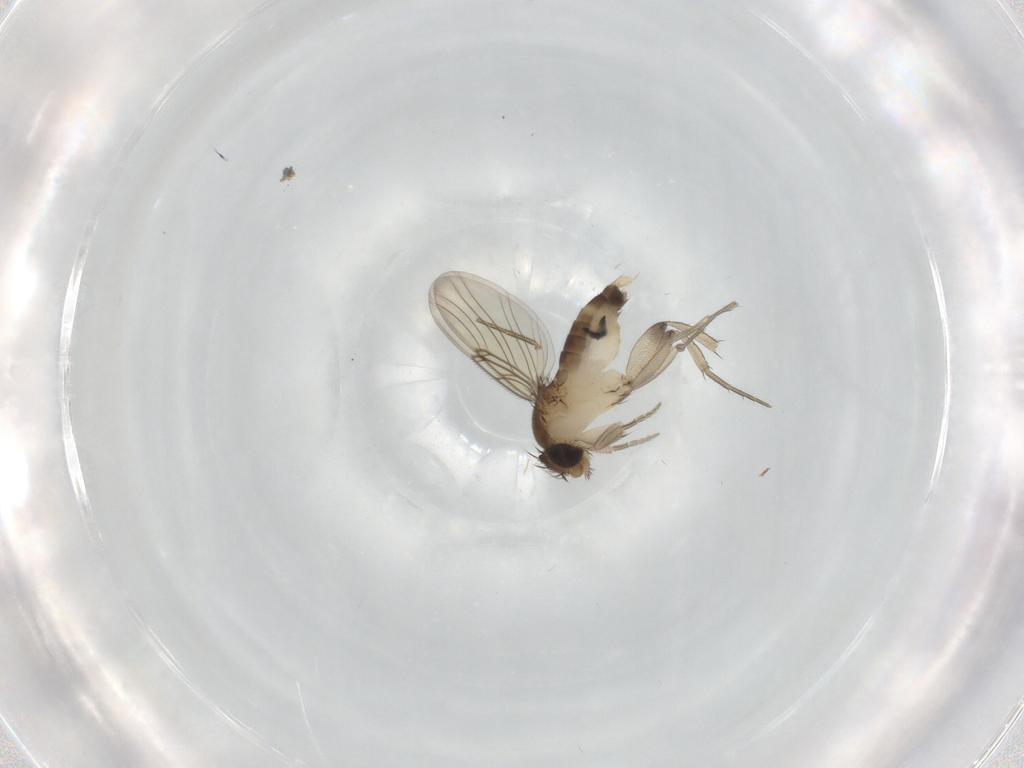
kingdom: Animalia
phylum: Arthropoda
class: Insecta
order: Diptera
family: Phoridae
